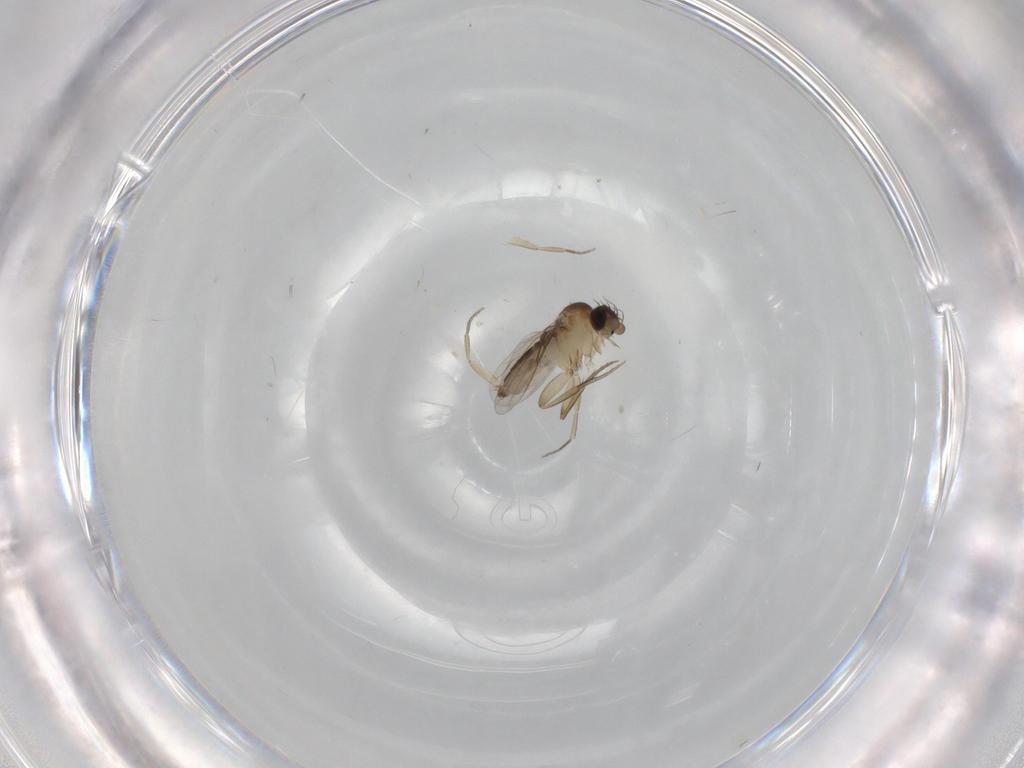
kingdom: Animalia
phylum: Arthropoda
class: Insecta
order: Diptera
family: Phoridae
